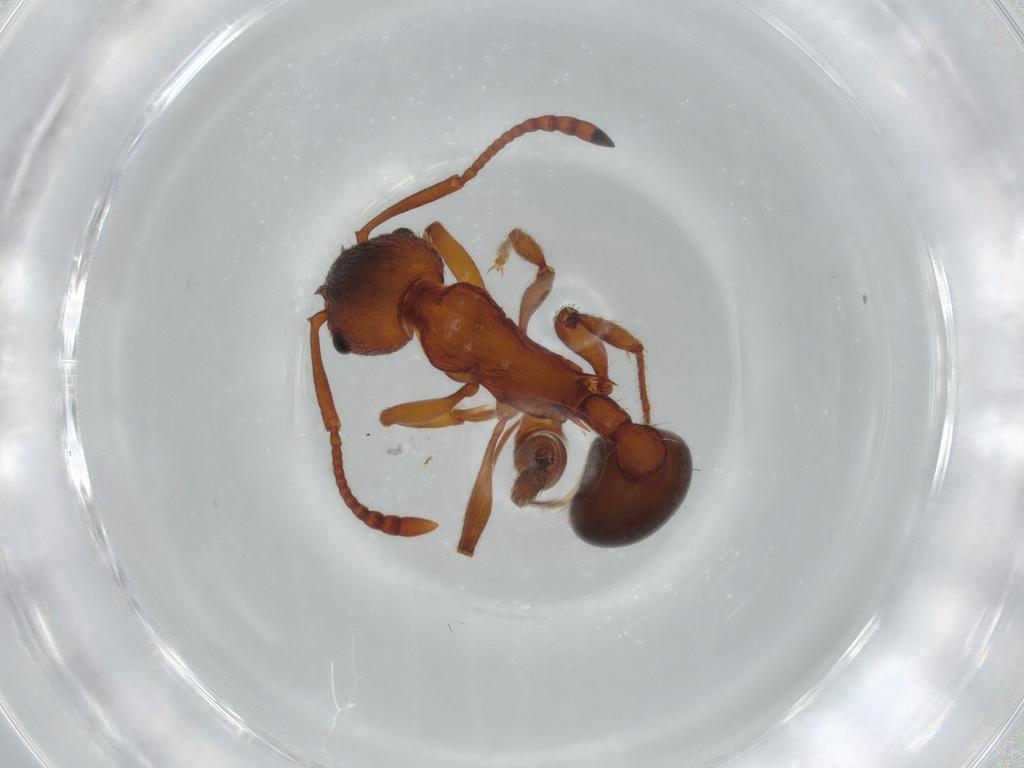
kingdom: Animalia
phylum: Arthropoda
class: Insecta
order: Hymenoptera
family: Formicidae
